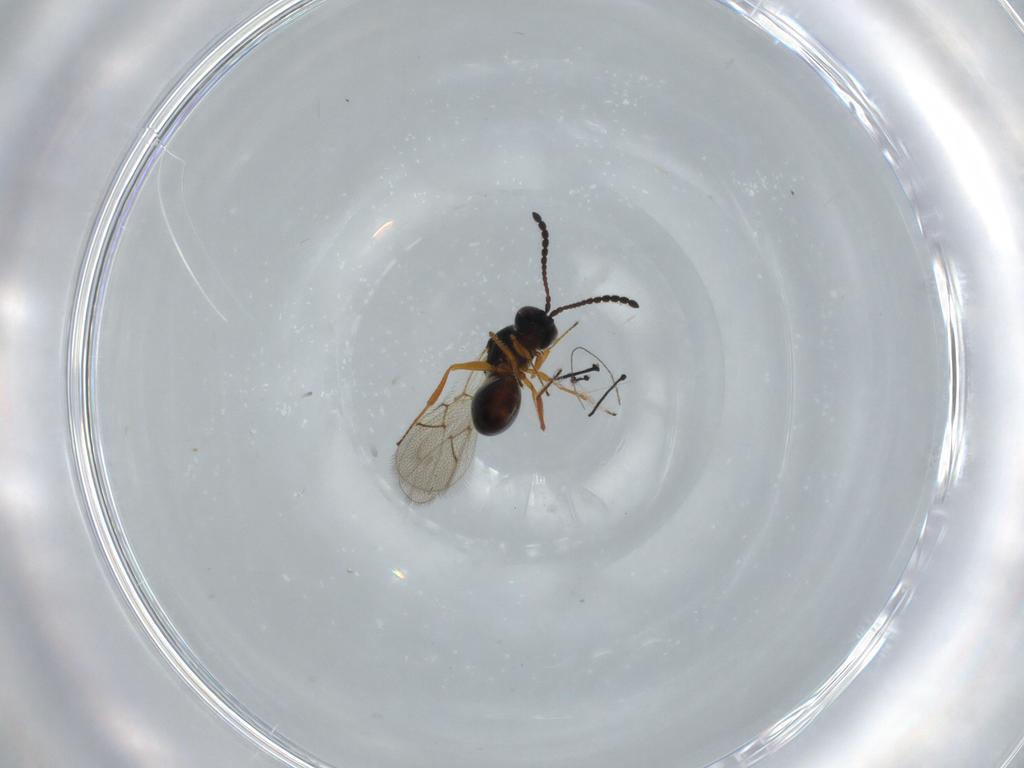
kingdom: Animalia
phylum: Arthropoda
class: Insecta
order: Hymenoptera
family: Figitidae
